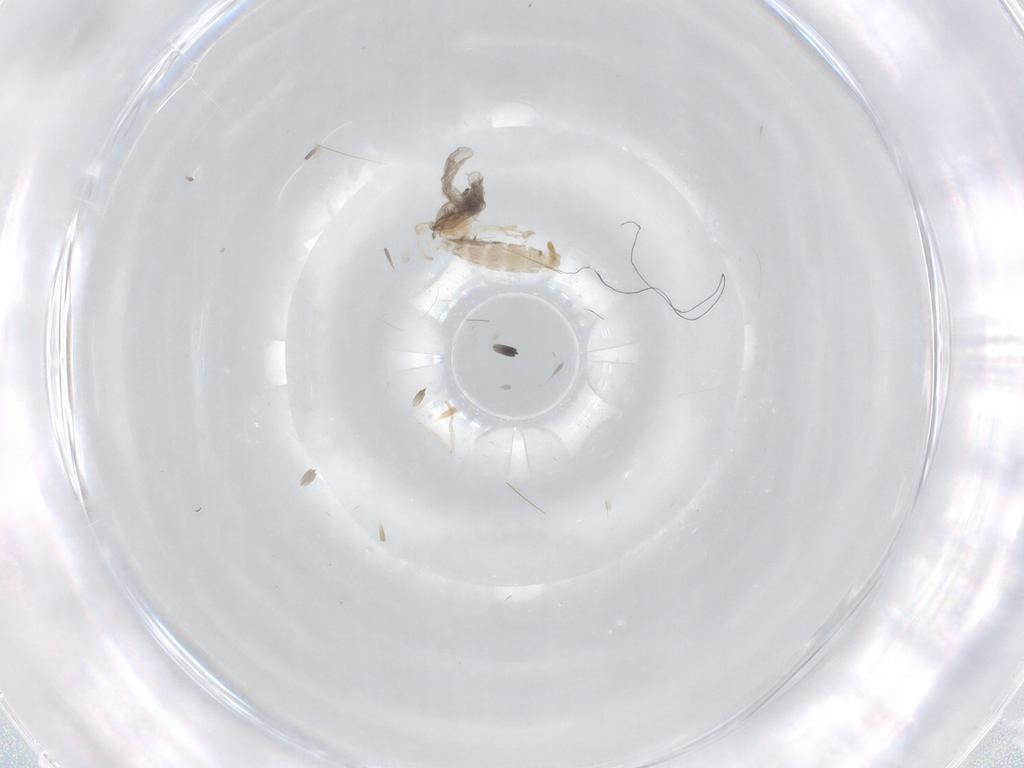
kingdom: Animalia
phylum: Arthropoda
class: Insecta
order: Diptera
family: Cecidomyiidae
